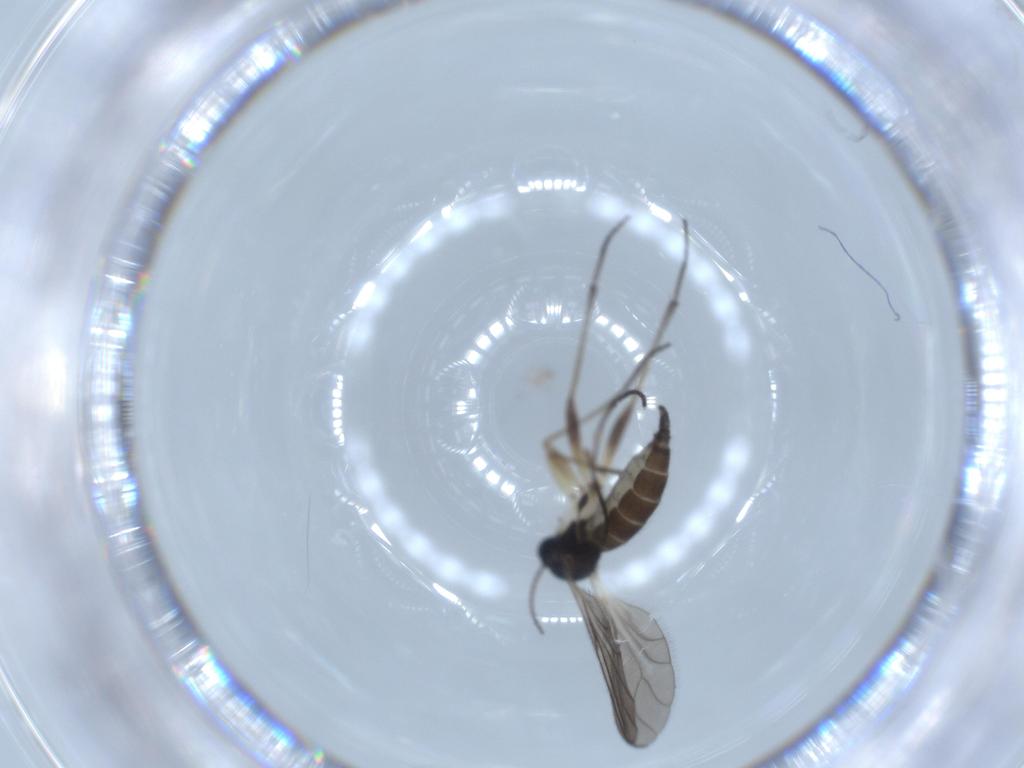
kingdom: Animalia
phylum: Arthropoda
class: Insecta
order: Diptera
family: Sciaridae
